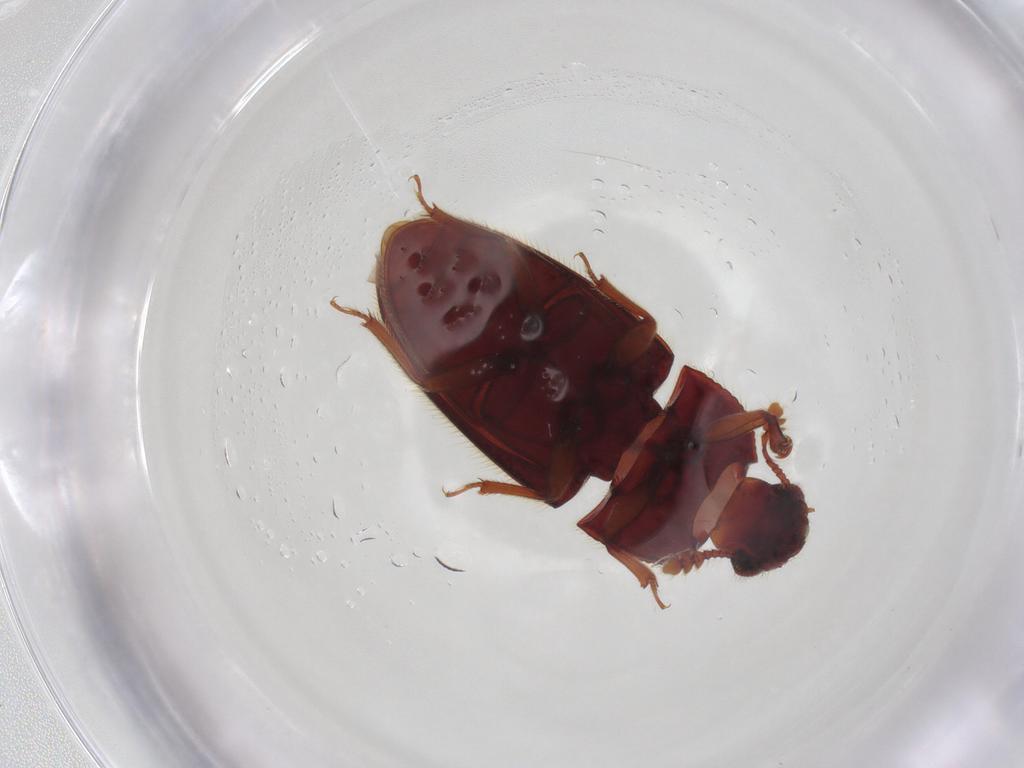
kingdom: Animalia
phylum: Arthropoda
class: Insecta
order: Coleoptera
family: Biphyllidae
